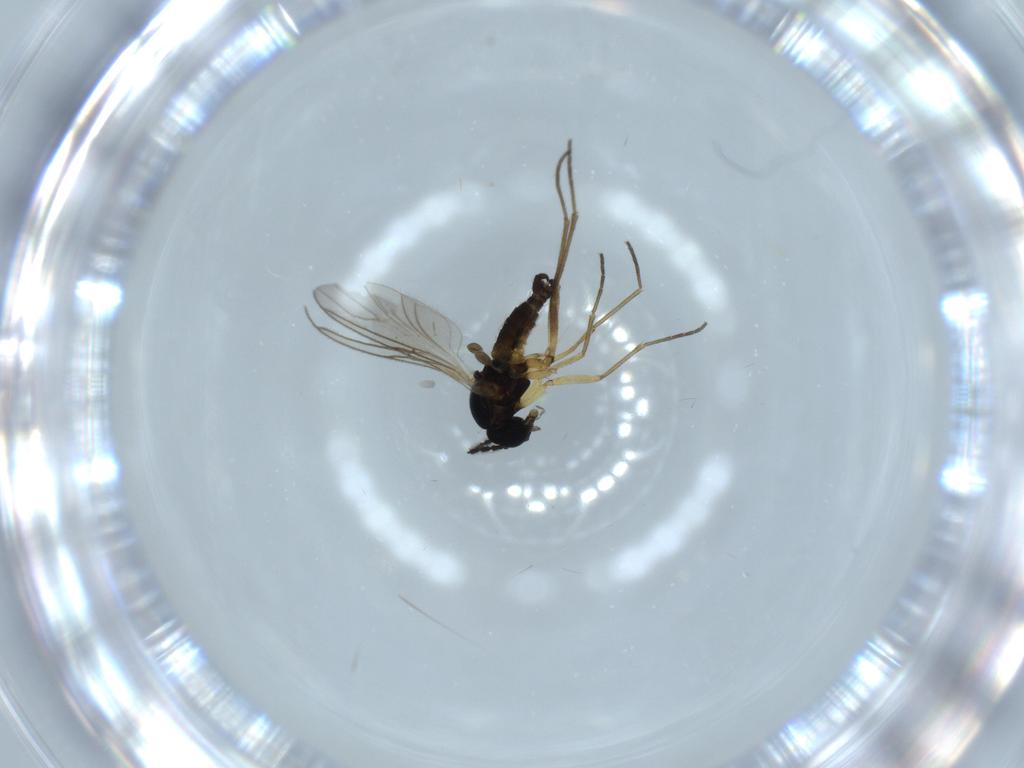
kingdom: Animalia
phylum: Arthropoda
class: Insecta
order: Diptera
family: Sciaridae
